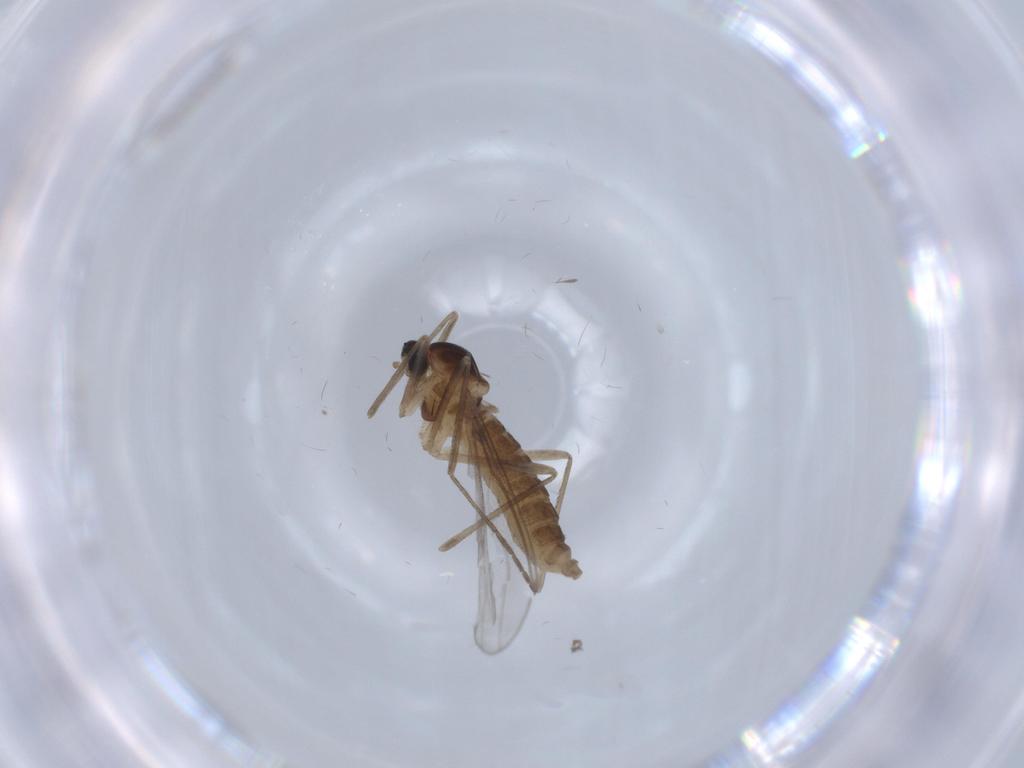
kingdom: Animalia
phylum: Arthropoda
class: Insecta
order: Diptera
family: Cecidomyiidae
